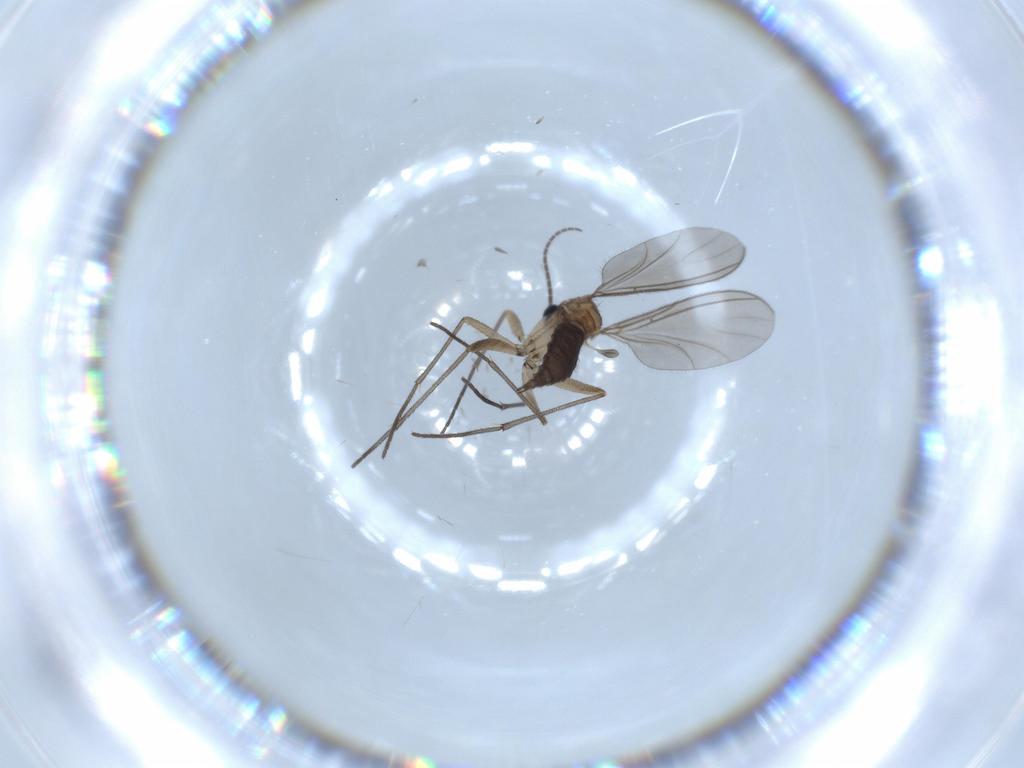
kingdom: Animalia
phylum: Arthropoda
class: Insecta
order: Diptera
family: Sciaridae
